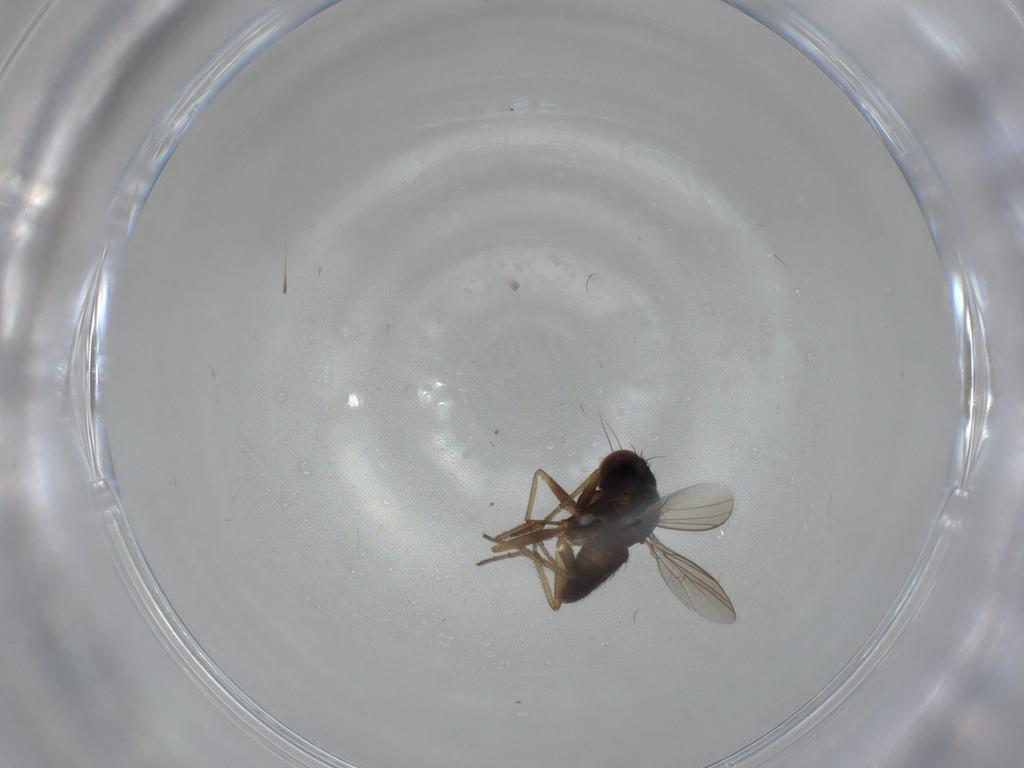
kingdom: Animalia
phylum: Arthropoda
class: Insecta
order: Diptera
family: Dolichopodidae
